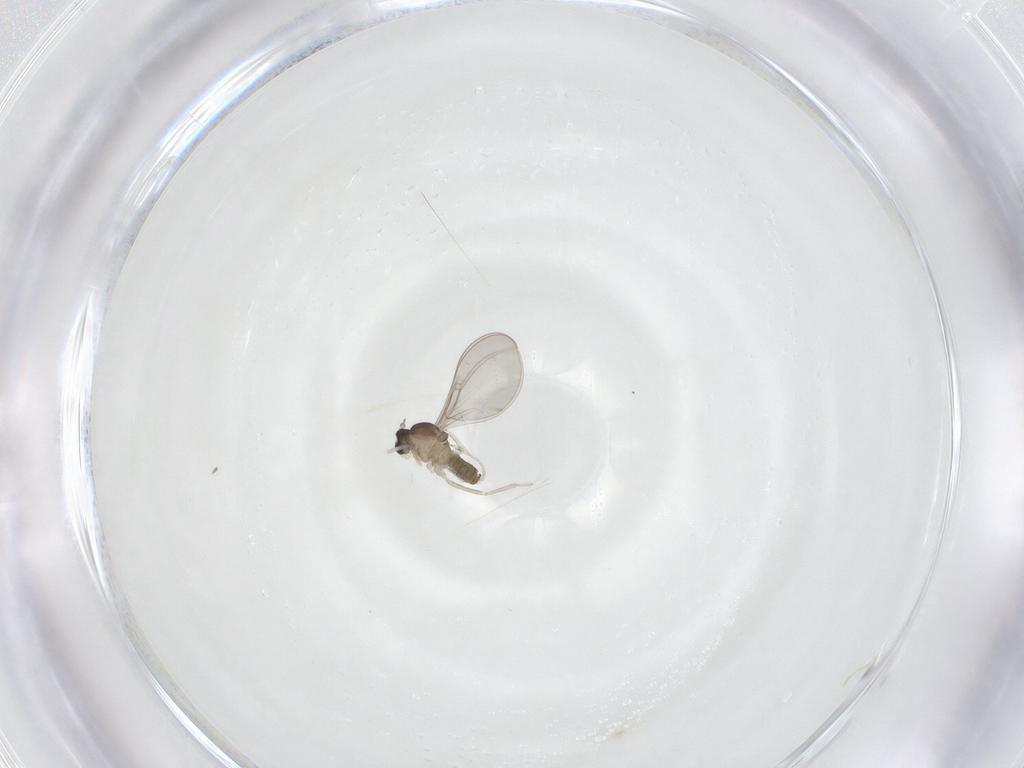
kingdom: Animalia
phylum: Arthropoda
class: Insecta
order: Diptera
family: Cecidomyiidae
